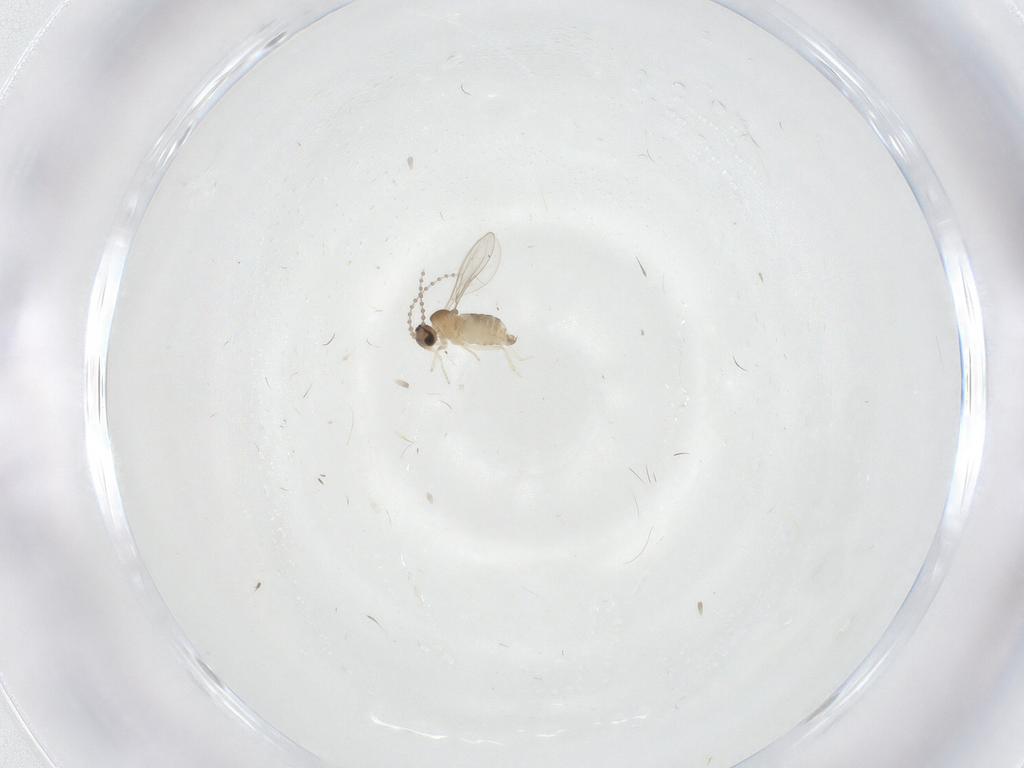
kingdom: Animalia
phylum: Arthropoda
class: Insecta
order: Diptera
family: Cecidomyiidae
